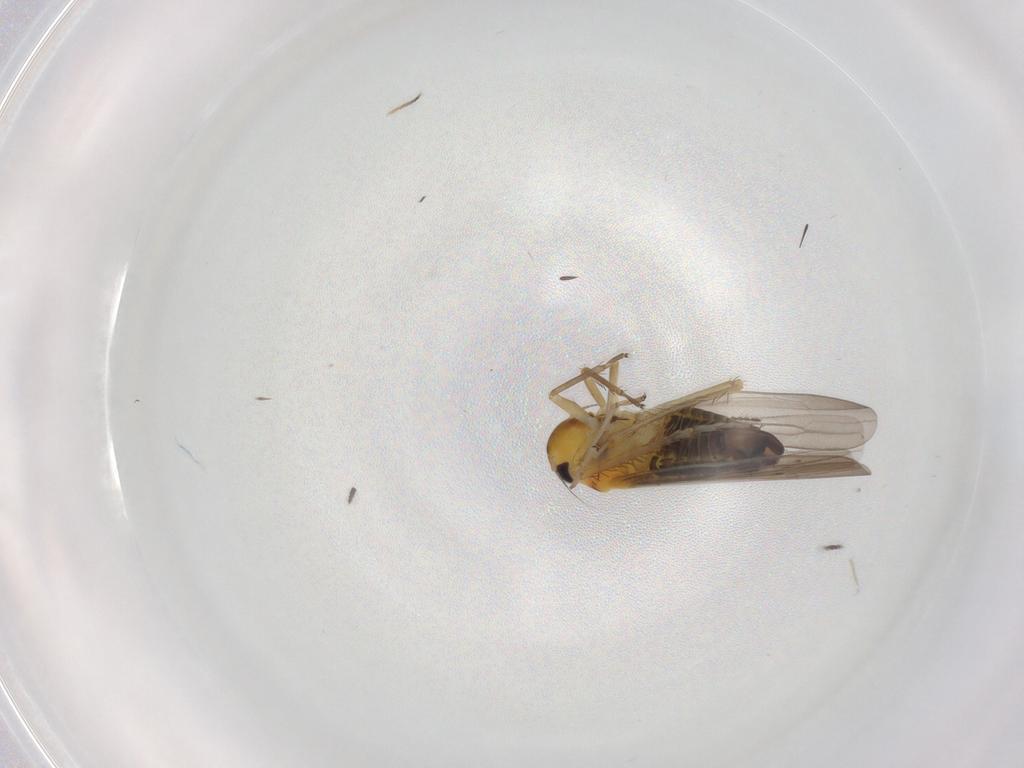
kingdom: Animalia
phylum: Arthropoda
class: Insecta
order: Hemiptera
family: Cicadellidae
